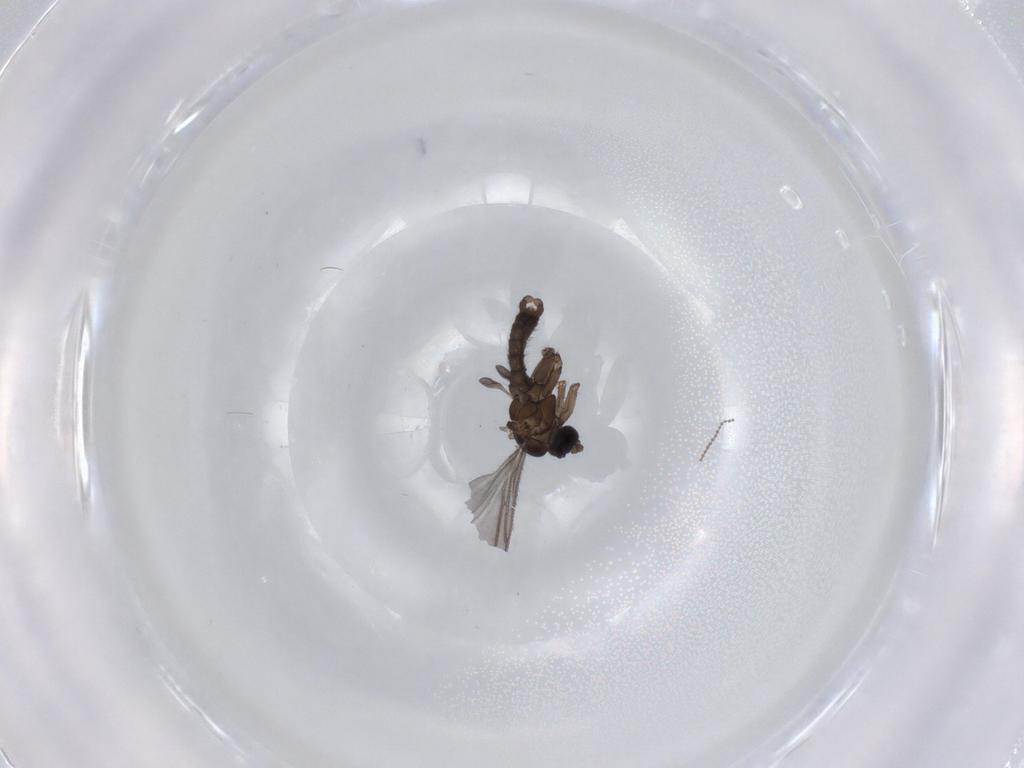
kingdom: Animalia
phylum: Arthropoda
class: Insecta
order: Diptera
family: Sciaridae
